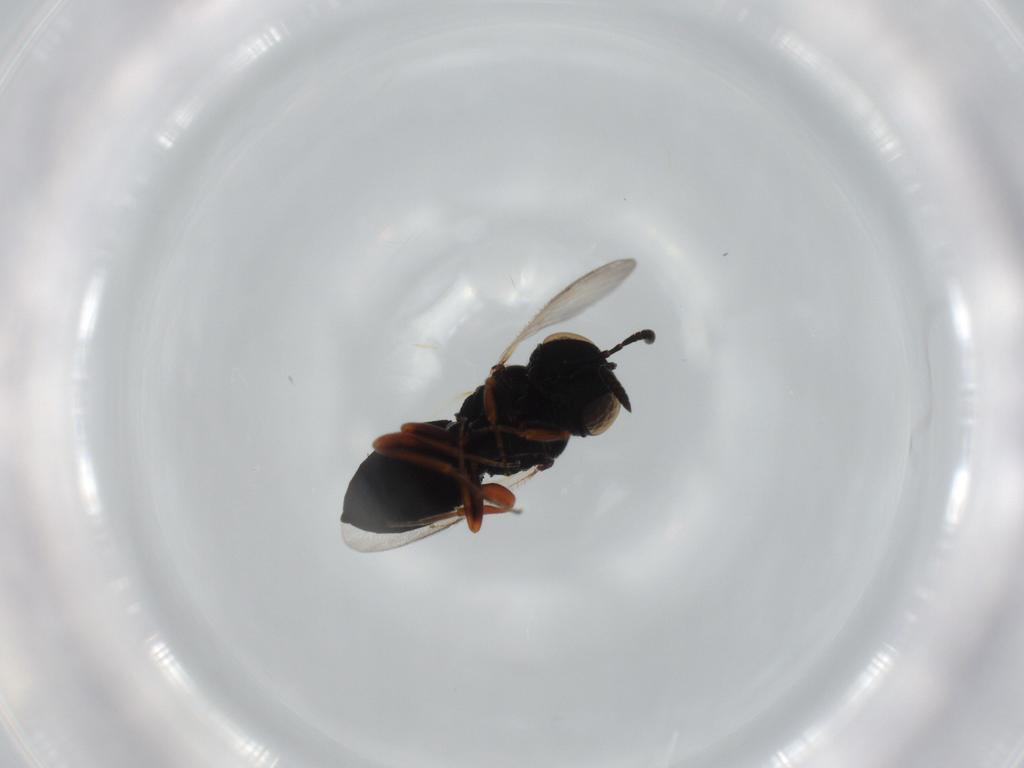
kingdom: Animalia
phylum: Arthropoda
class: Insecta
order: Hymenoptera
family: Scelionidae
